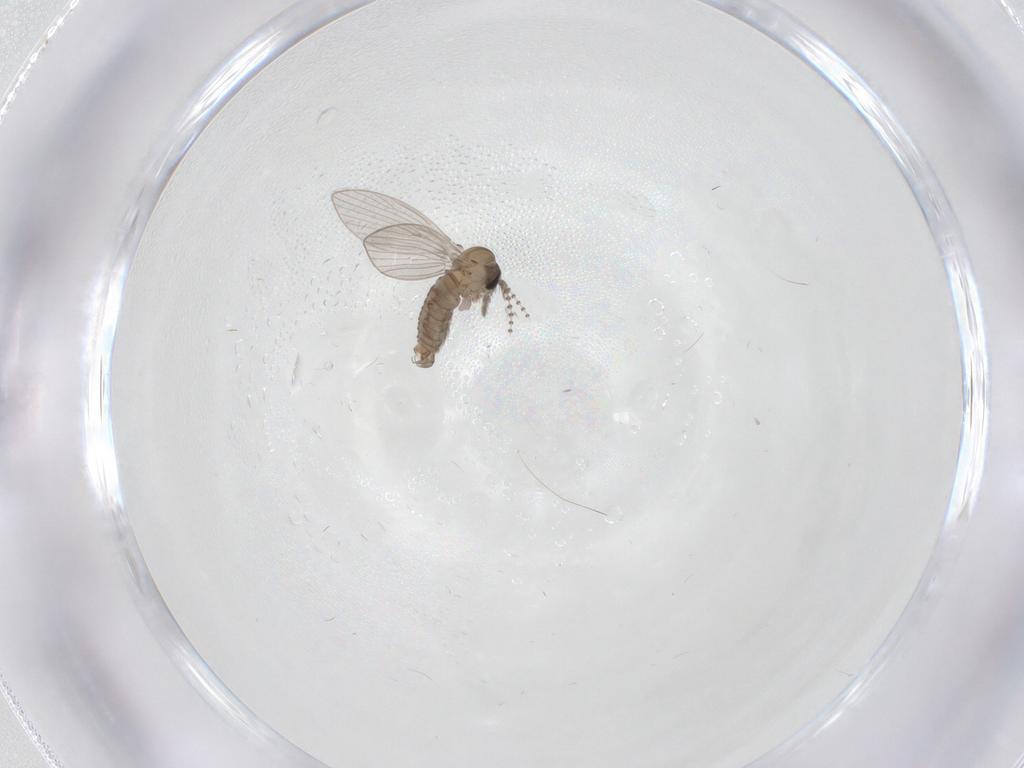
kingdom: Animalia
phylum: Arthropoda
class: Insecta
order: Diptera
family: Psychodidae
